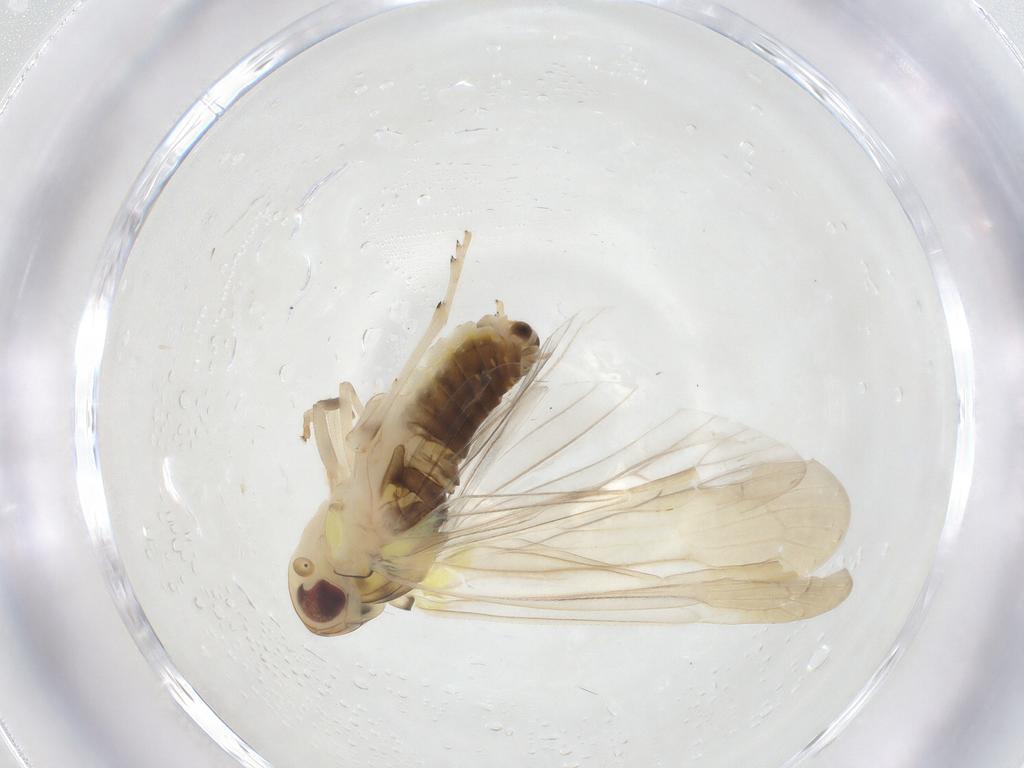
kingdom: Animalia
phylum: Arthropoda
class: Insecta
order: Hemiptera
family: Achilidae
